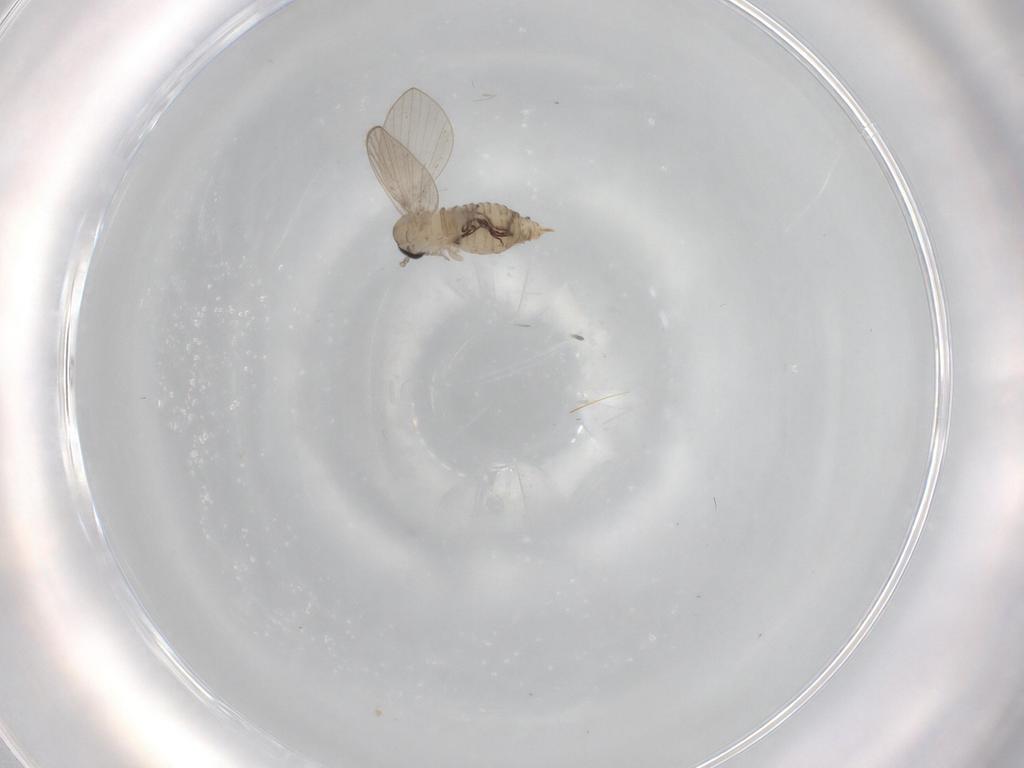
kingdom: Animalia
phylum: Arthropoda
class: Insecta
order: Diptera
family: Psychodidae
